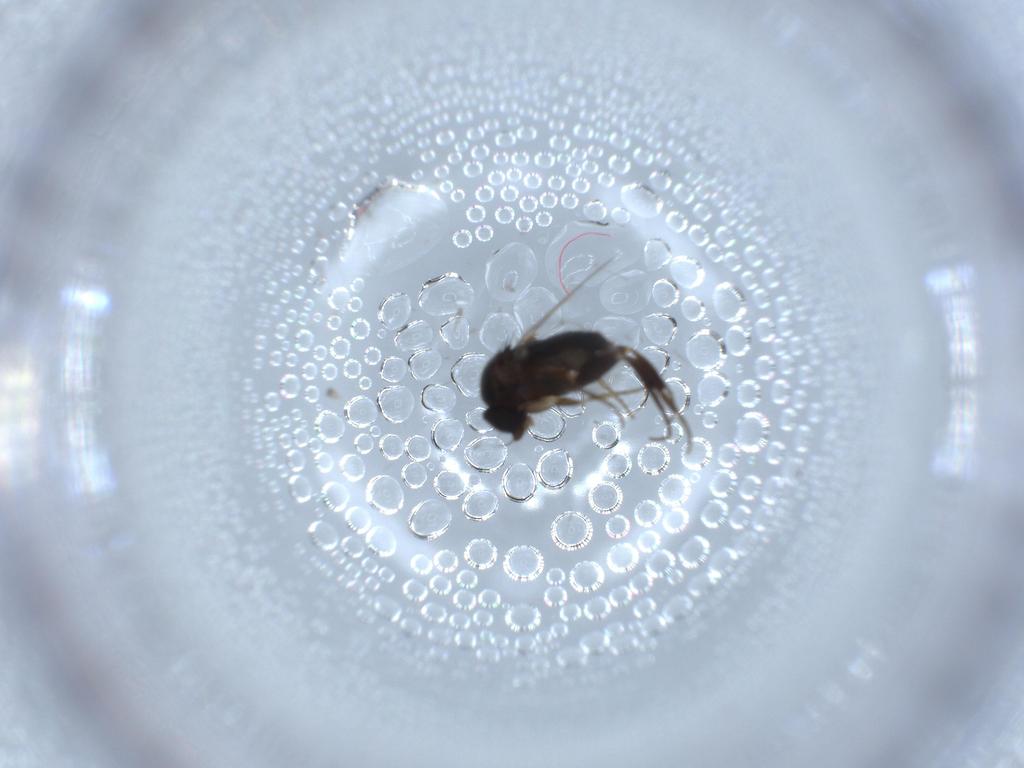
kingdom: Animalia
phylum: Arthropoda
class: Insecta
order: Diptera
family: Phoridae
